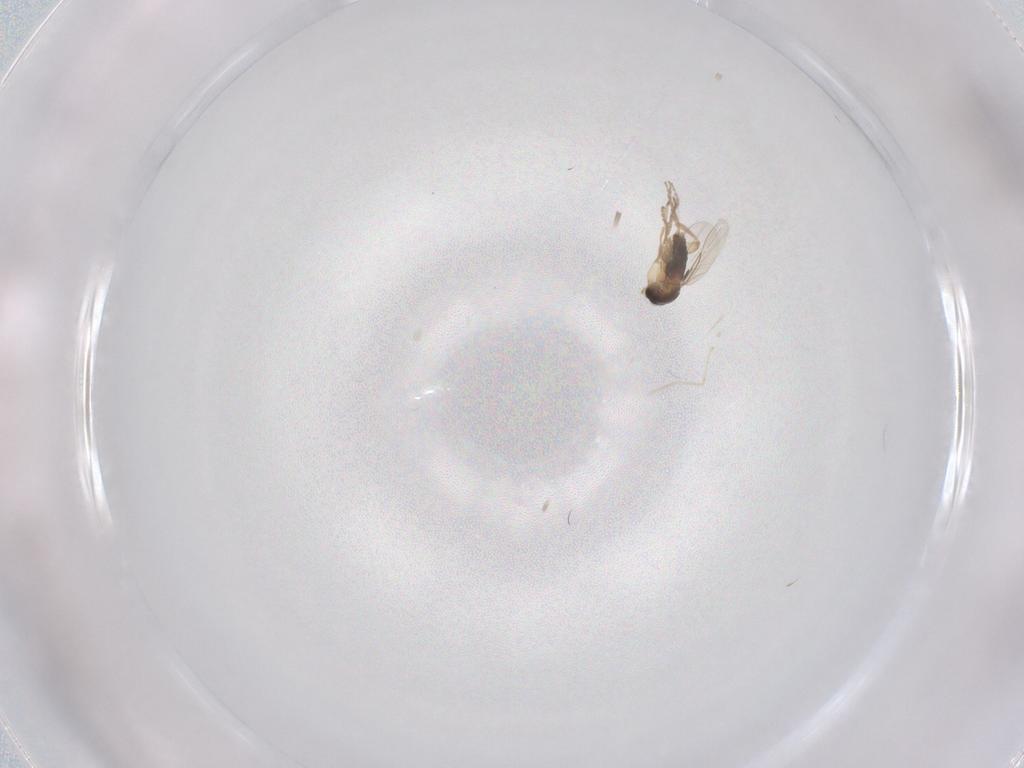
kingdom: Animalia
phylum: Arthropoda
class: Insecta
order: Diptera
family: Phoridae
